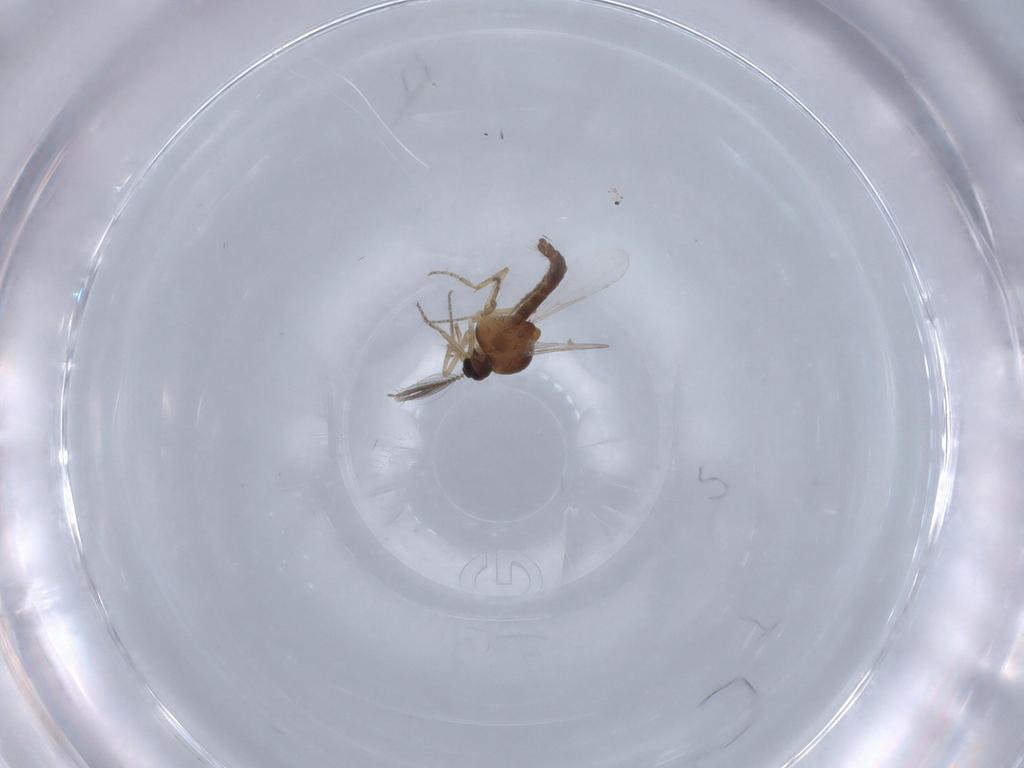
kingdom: Animalia
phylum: Arthropoda
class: Insecta
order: Diptera
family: Ceratopogonidae
